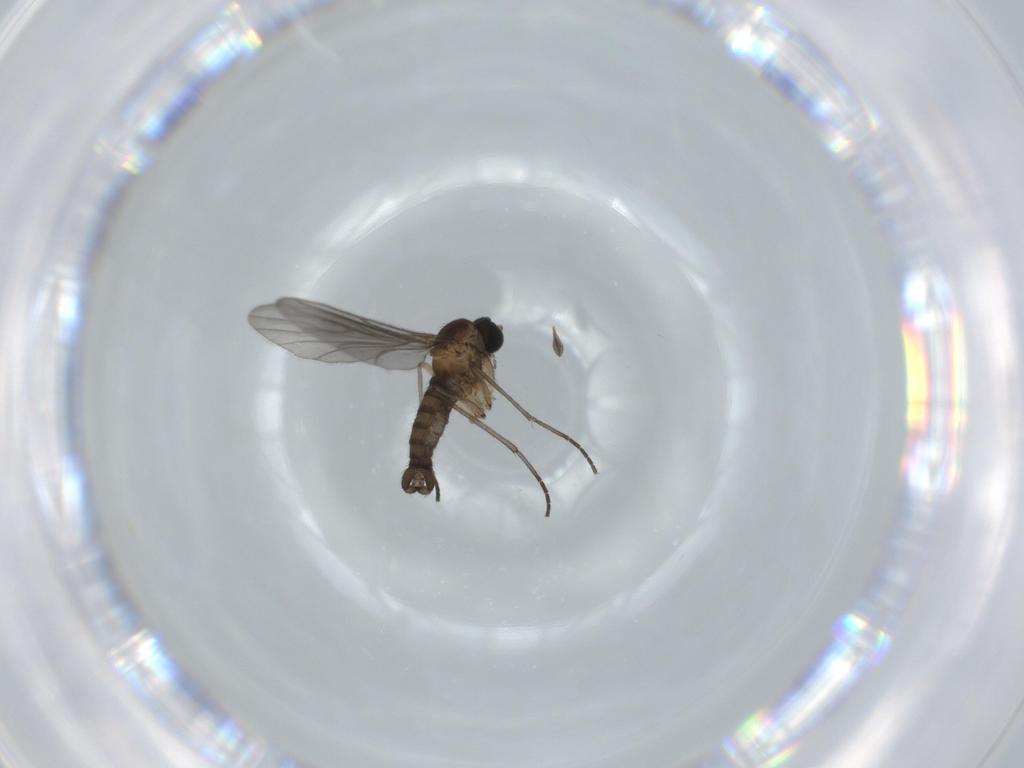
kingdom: Animalia
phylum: Arthropoda
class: Insecta
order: Diptera
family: Sciaridae
